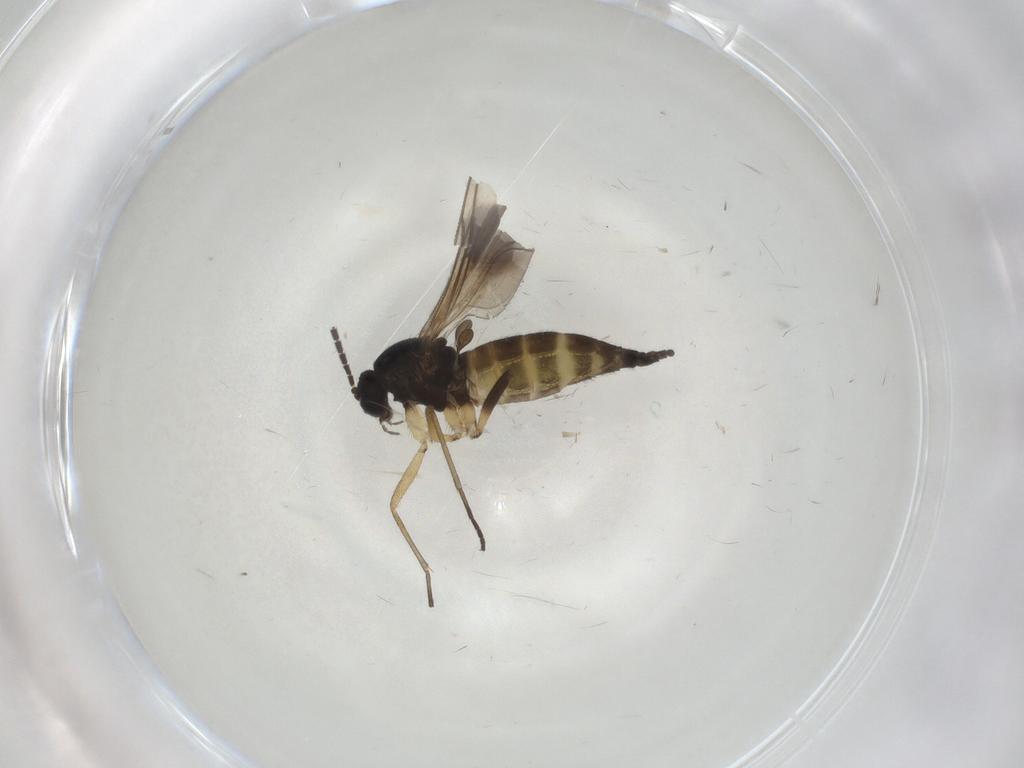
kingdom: Animalia
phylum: Arthropoda
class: Insecta
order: Diptera
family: Sciaridae
